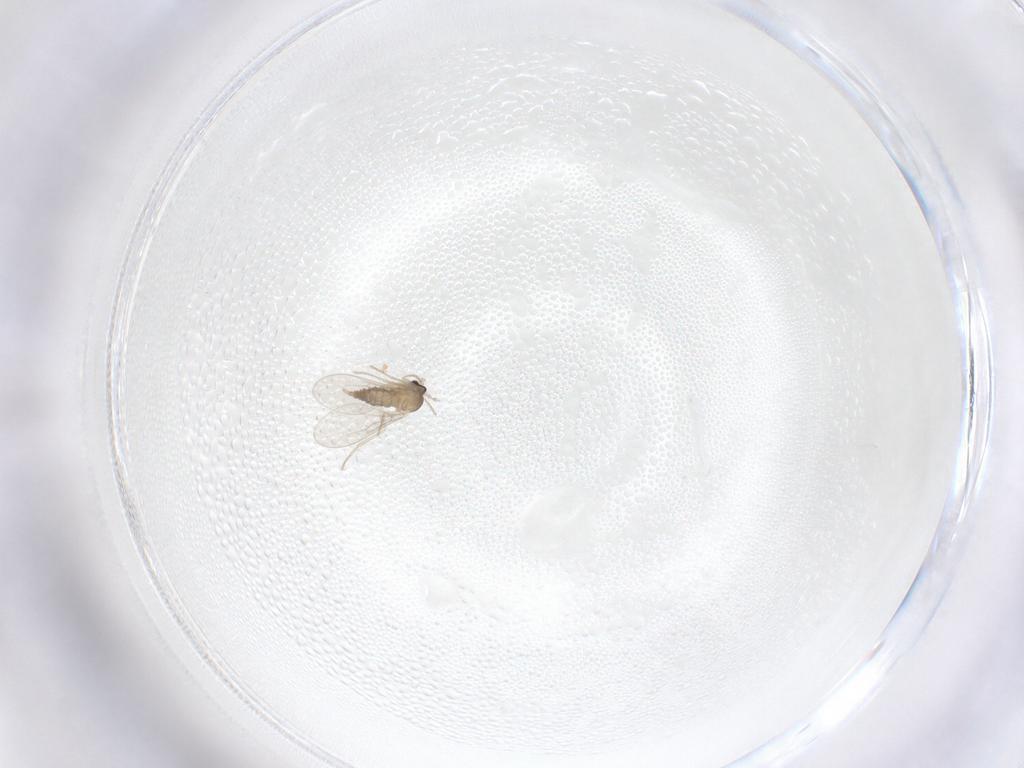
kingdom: Animalia
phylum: Arthropoda
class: Insecta
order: Diptera
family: Cecidomyiidae
